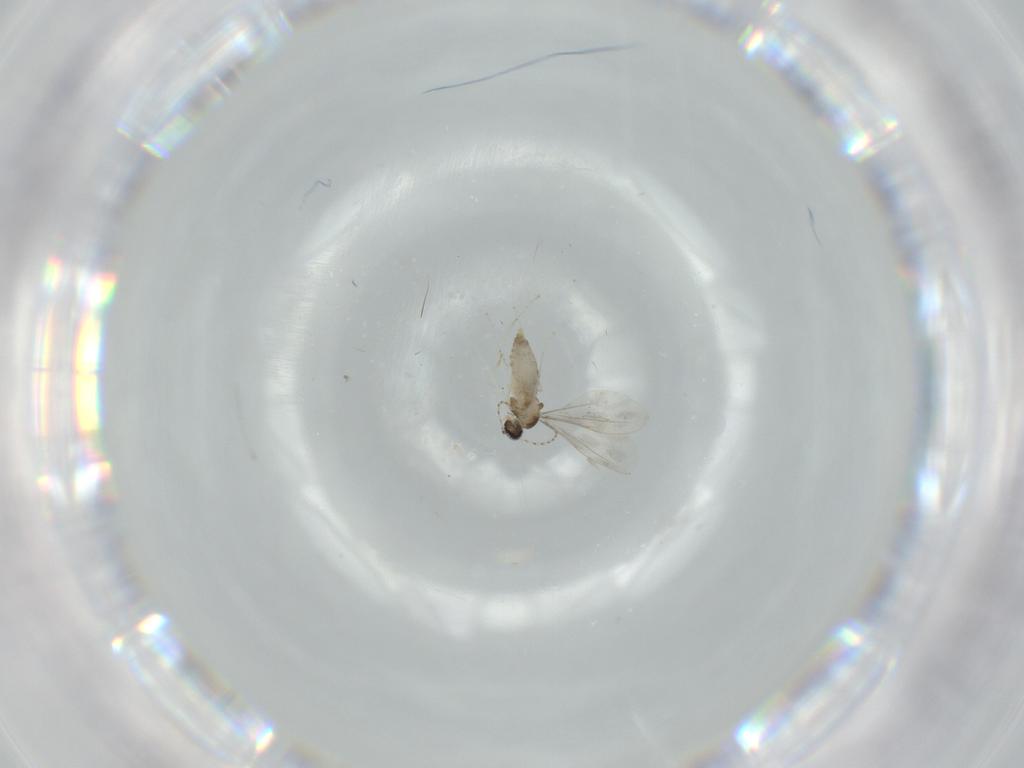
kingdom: Animalia
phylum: Arthropoda
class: Insecta
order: Diptera
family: Cecidomyiidae
